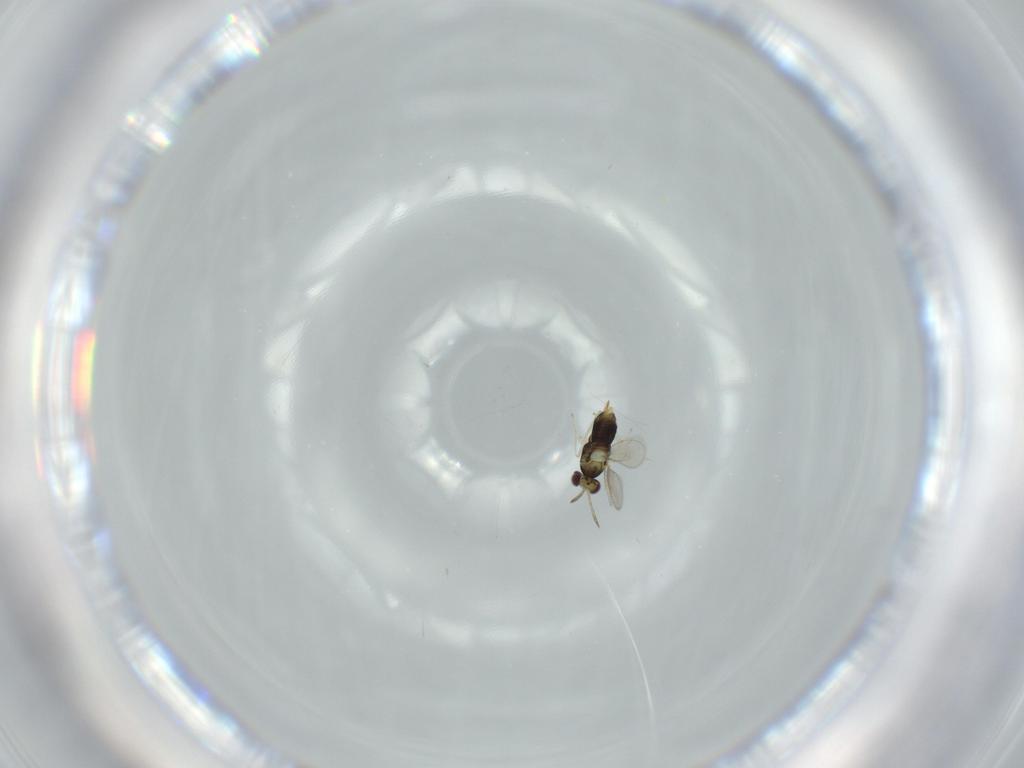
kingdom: Animalia
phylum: Arthropoda
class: Insecta
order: Hymenoptera
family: Aphelinidae
